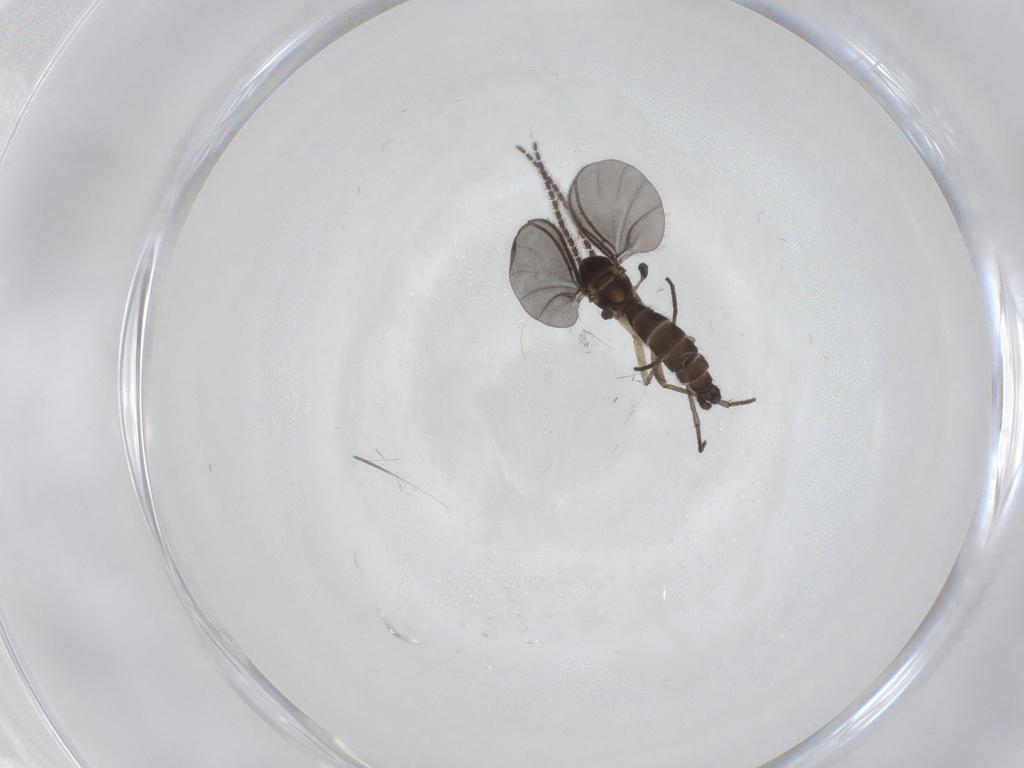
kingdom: Animalia
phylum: Arthropoda
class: Insecta
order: Diptera
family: Sciaridae
